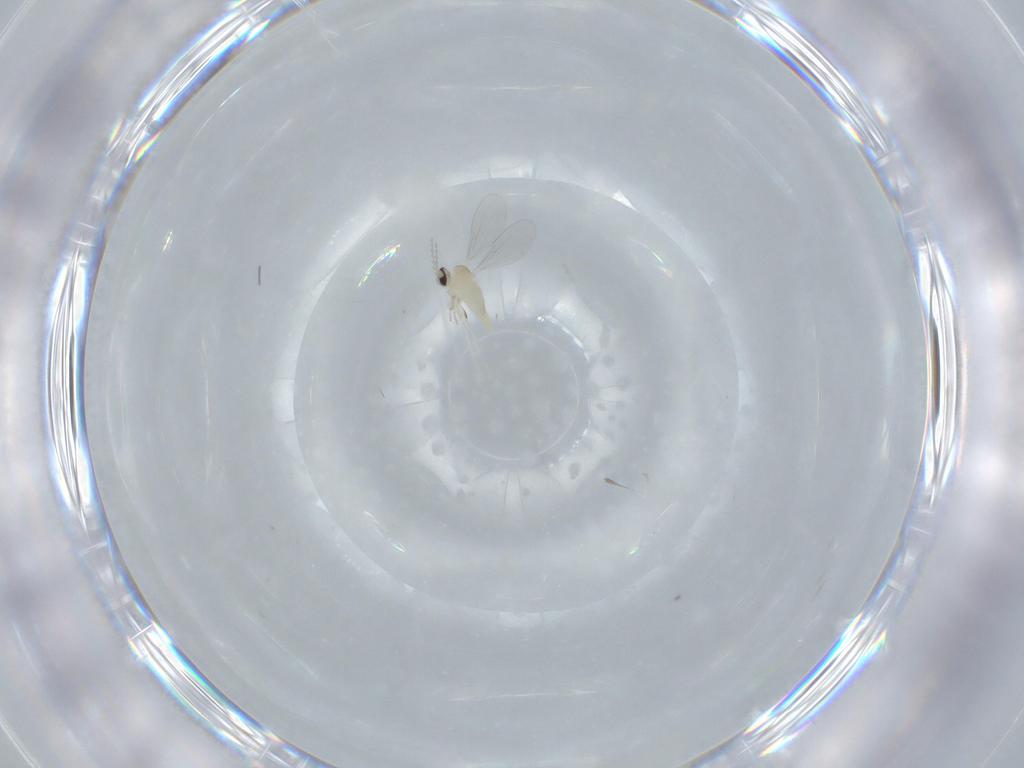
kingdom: Animalia
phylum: Arthropoda
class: Insecta
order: Diptera
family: Cecidomyiidae
